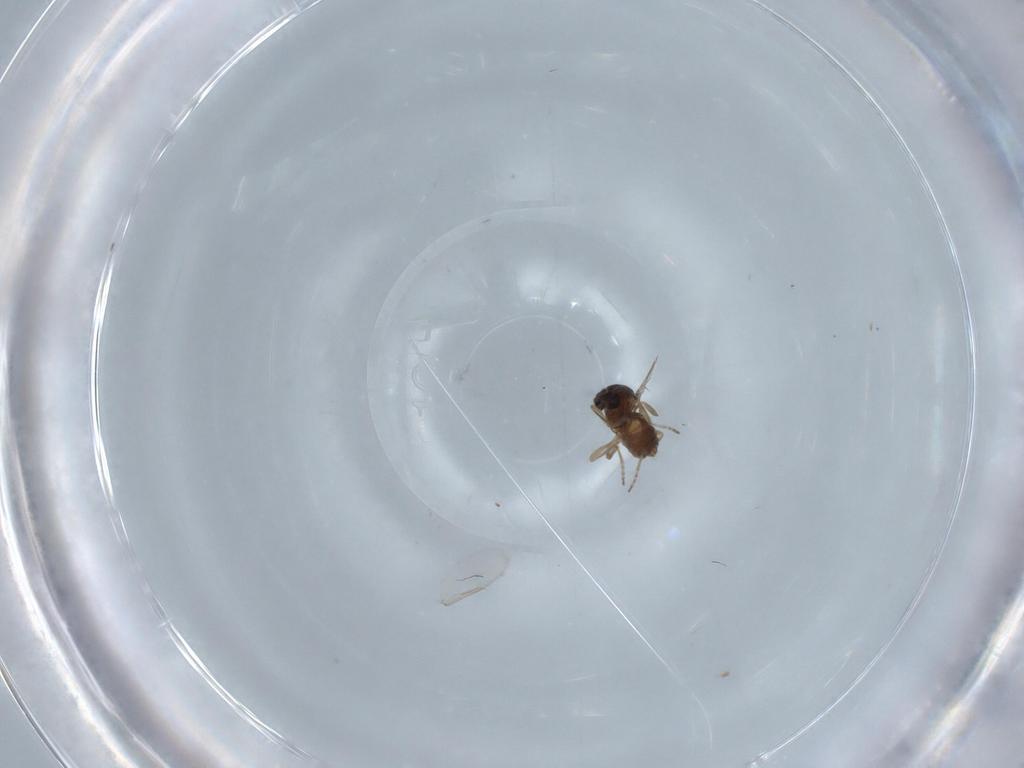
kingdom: Animalia
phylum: Arthropoda
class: Insecta
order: Diptera
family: Ceratopogonidae
